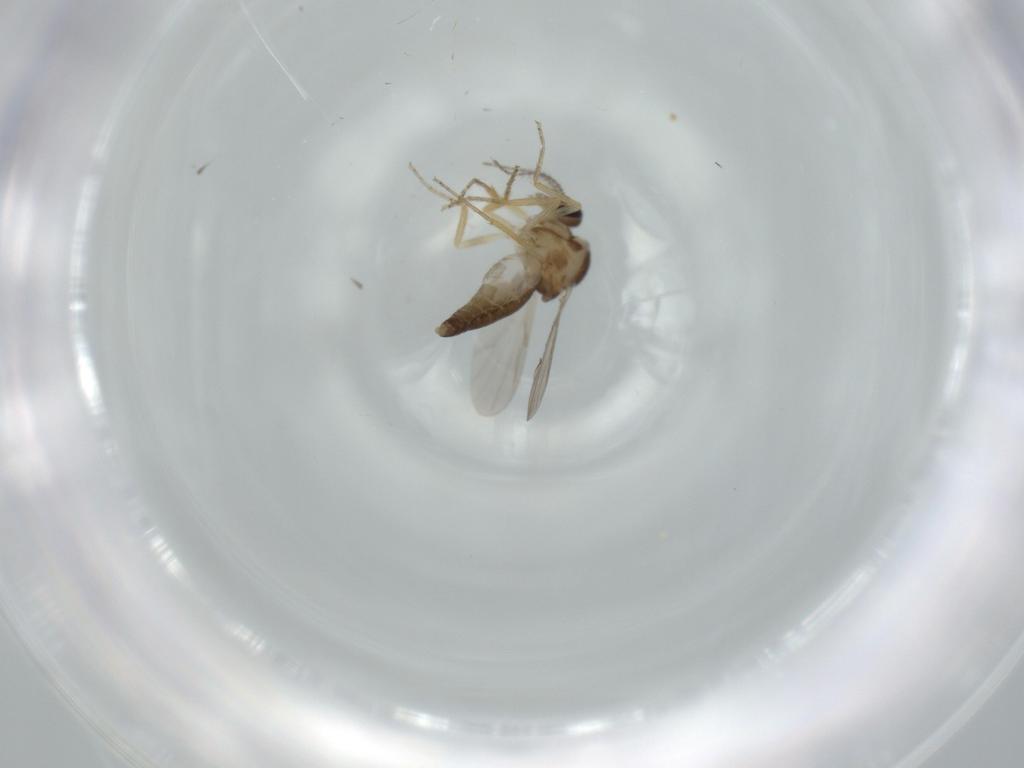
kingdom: Animalia
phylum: Arthropoda
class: Insecta
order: Diptera
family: Ceratopogonidae
